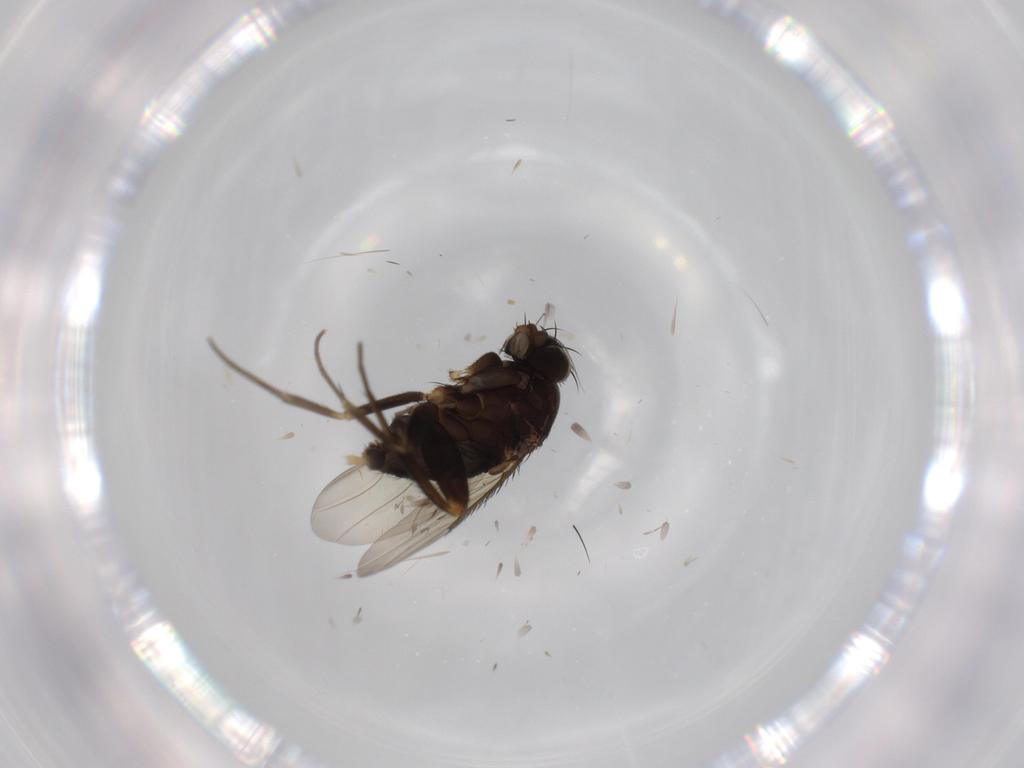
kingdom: Animalia
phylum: Arthropoda
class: Insecta
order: Diptera
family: Phoridae
